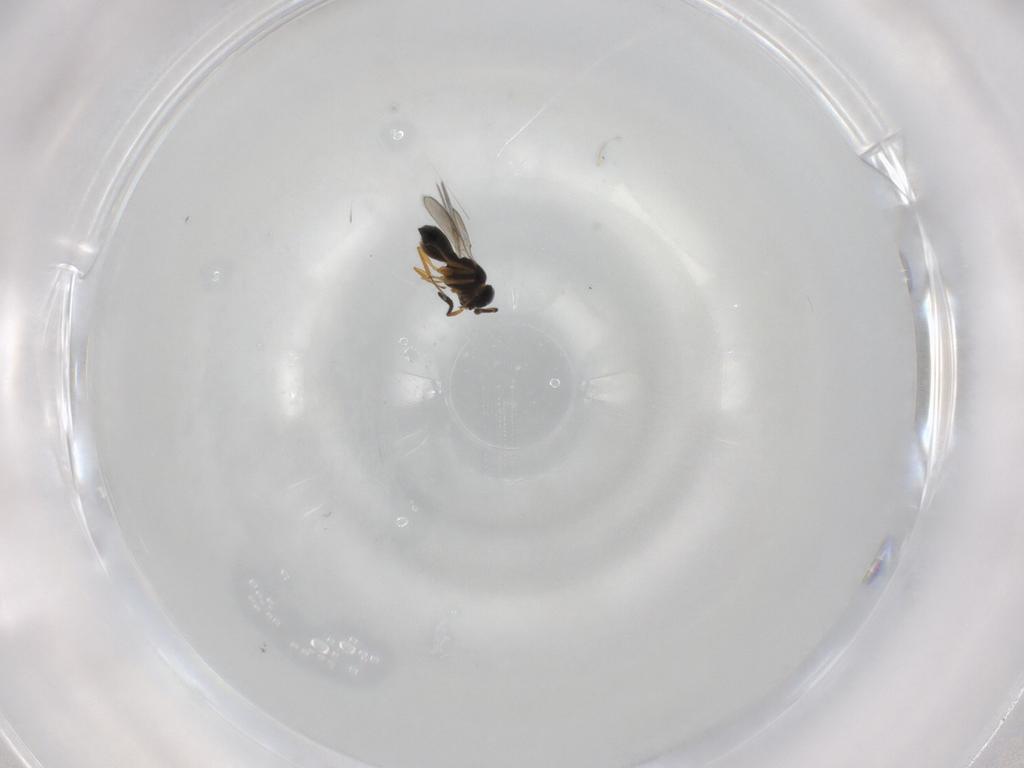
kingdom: Animalia
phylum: Arthropoda
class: Insecta
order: Hymenoptera
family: Scelionidae
